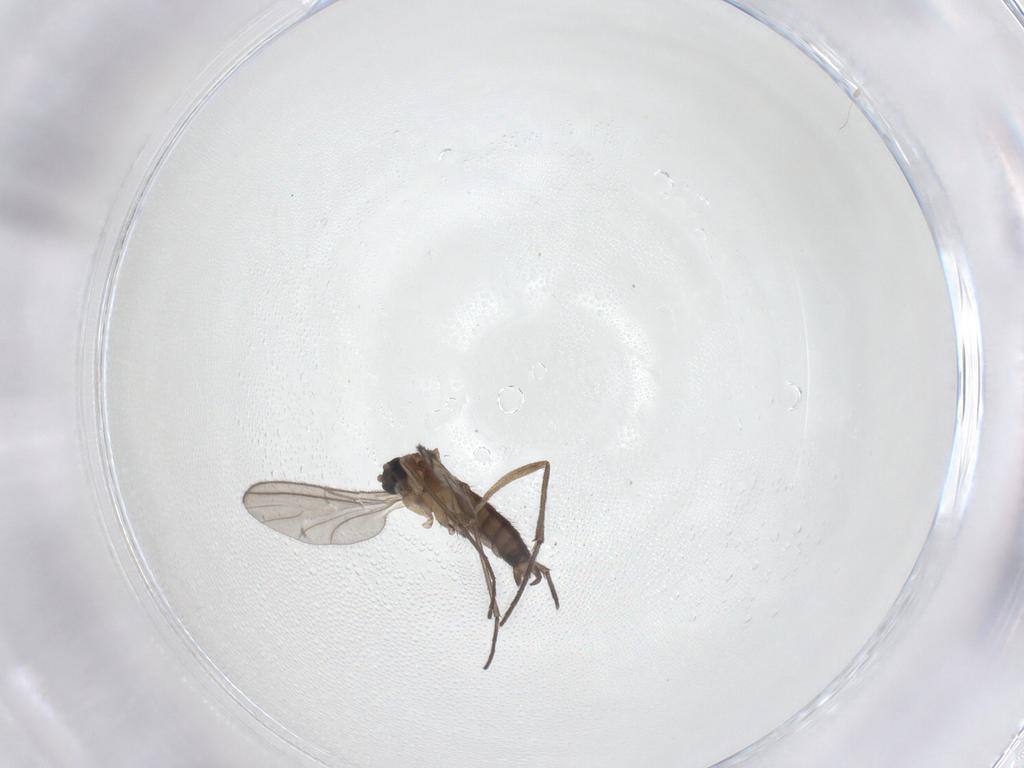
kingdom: Animalia
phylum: Arthropoda
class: Insecta
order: Diptera
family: Sciaridae
